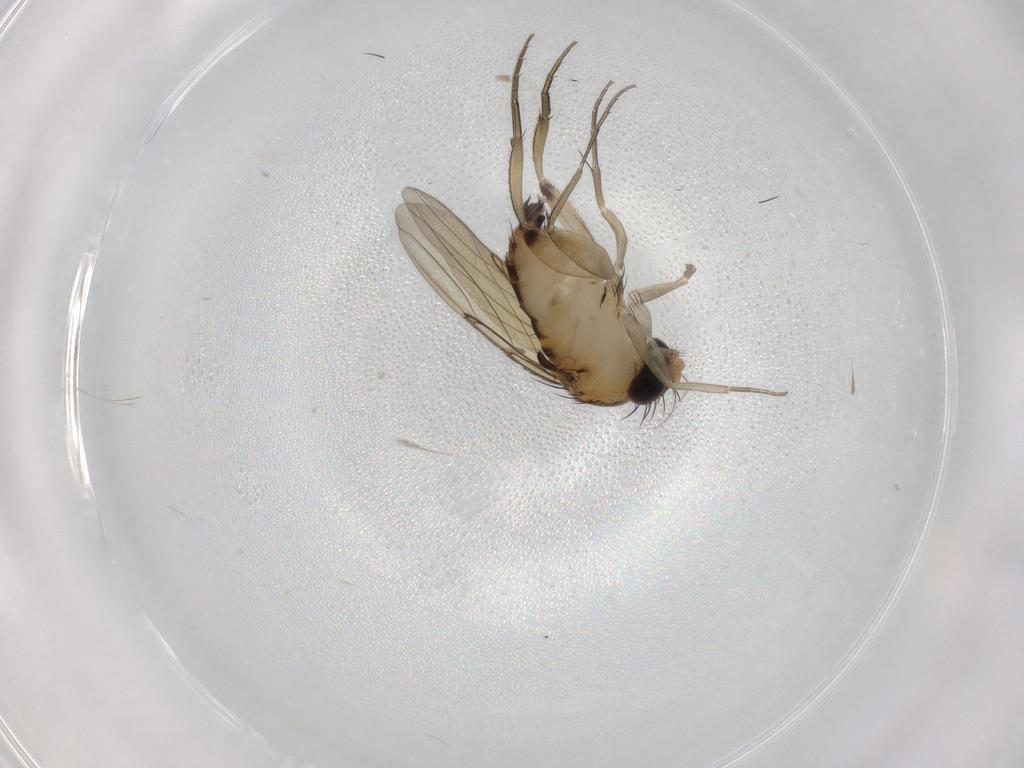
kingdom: Animalia
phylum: Arthropoda
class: Insecta
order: Diptera
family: Phoridae
